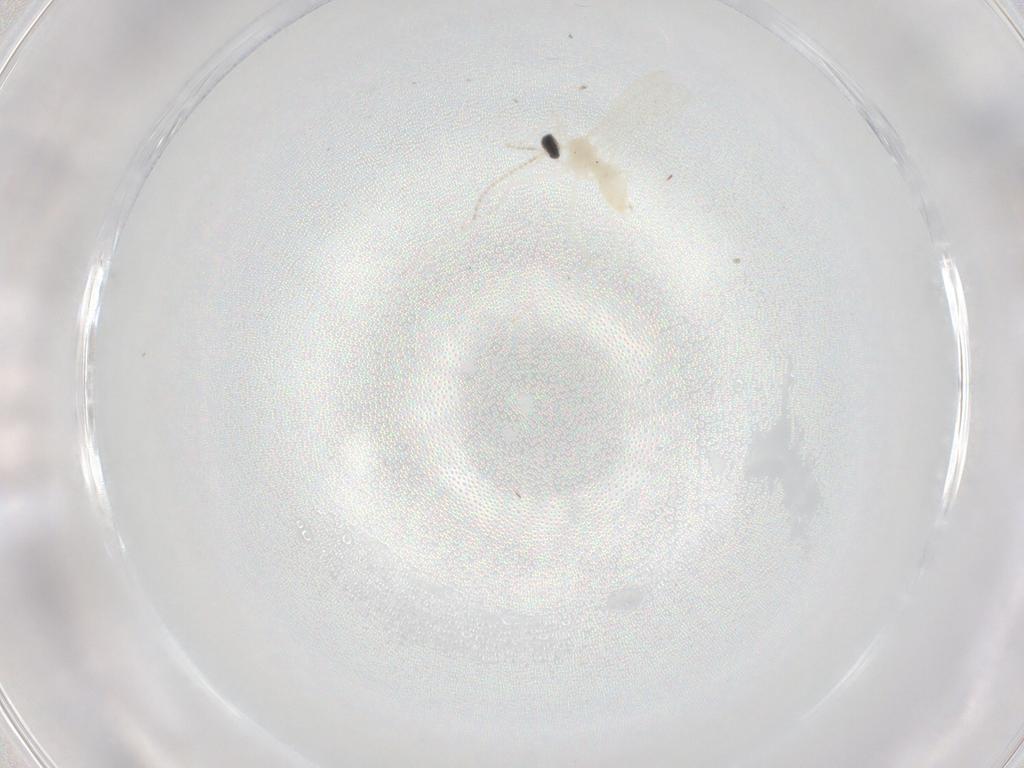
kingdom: Animalia
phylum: Arthropoda
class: Insecta
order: Diptera
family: Cecidomyiidae
